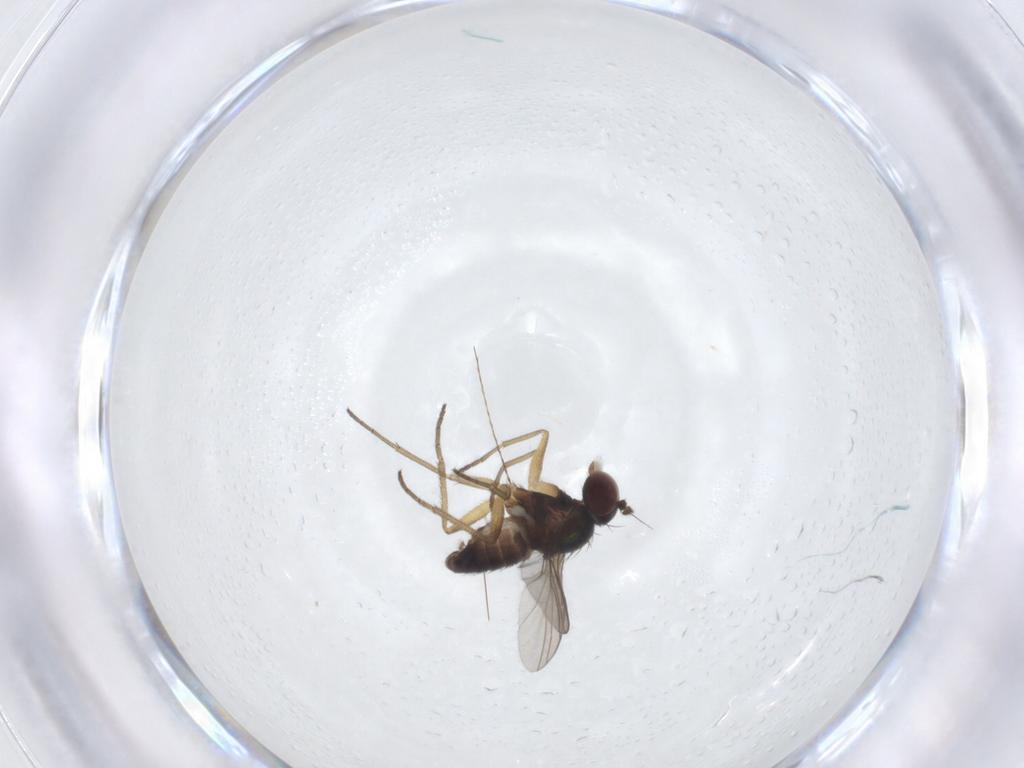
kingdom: Animalia
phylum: Arthropoda
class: Insecta
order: Diptera
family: Dolichopodidae
